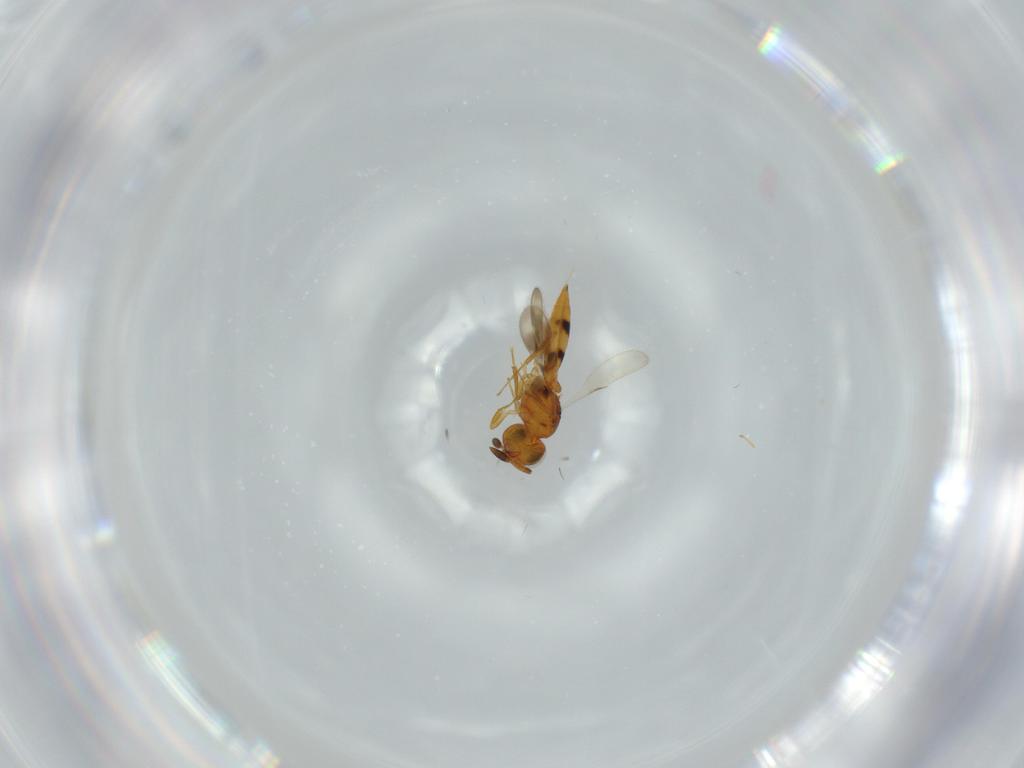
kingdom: Animalia
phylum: Arthropoda
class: Insecta
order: Hymenoptera
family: Scelionidae
